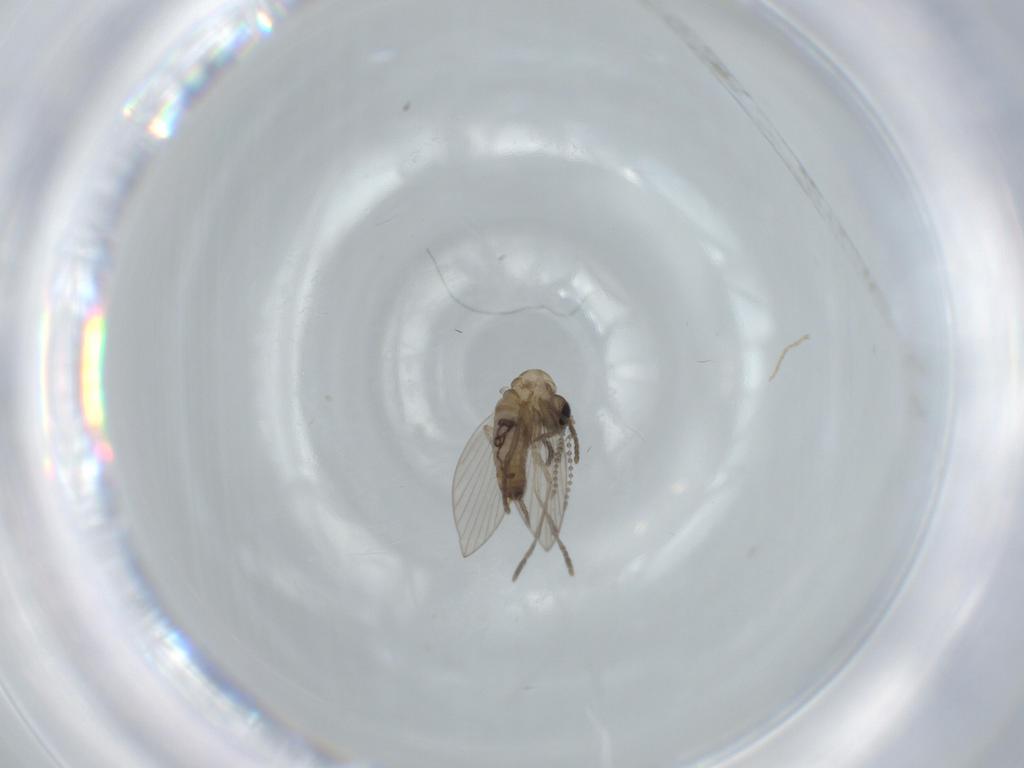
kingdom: Animalia
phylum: Arthropoda
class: Insecta
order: Diptera
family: Psychodidae
